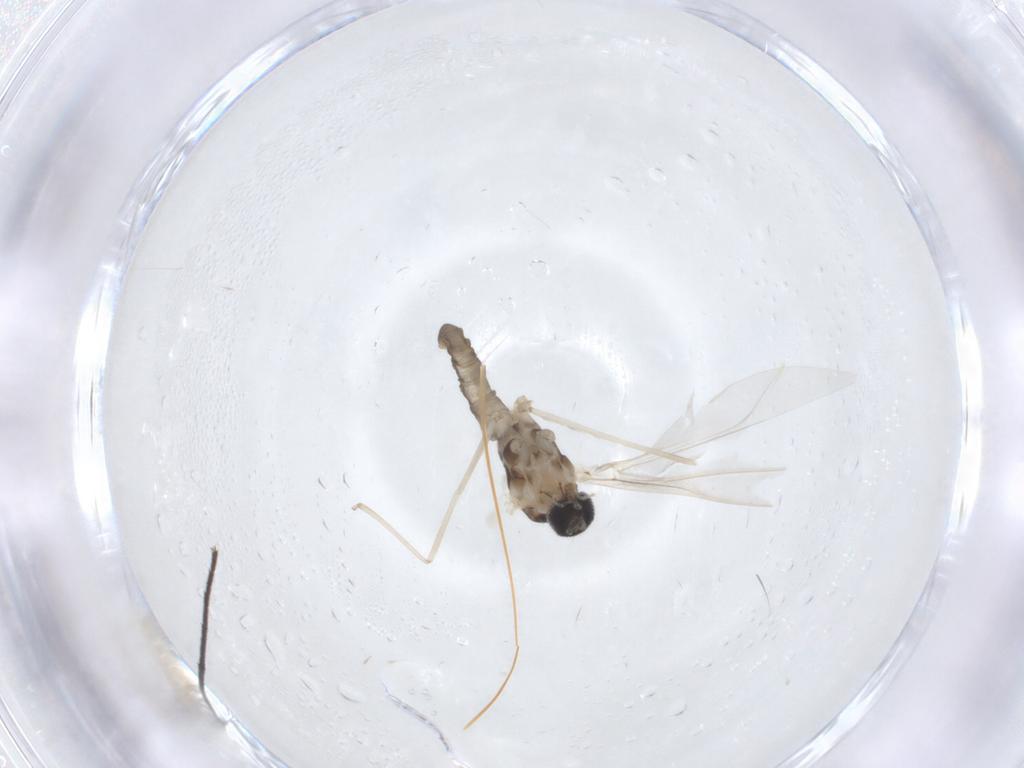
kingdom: Animalia
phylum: Arthropoda
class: Insecta
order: Diptera
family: Cecidomyiidae
